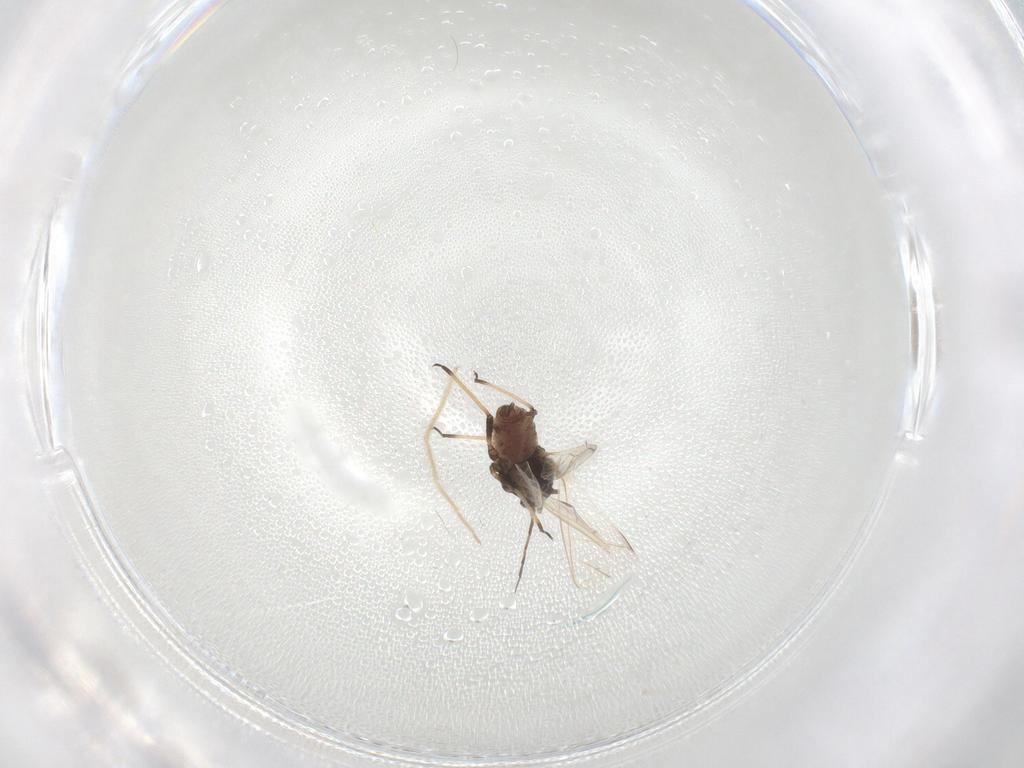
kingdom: Animalia
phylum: Arthropoda
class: Insecta
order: Hemiptera
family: Aphididae
